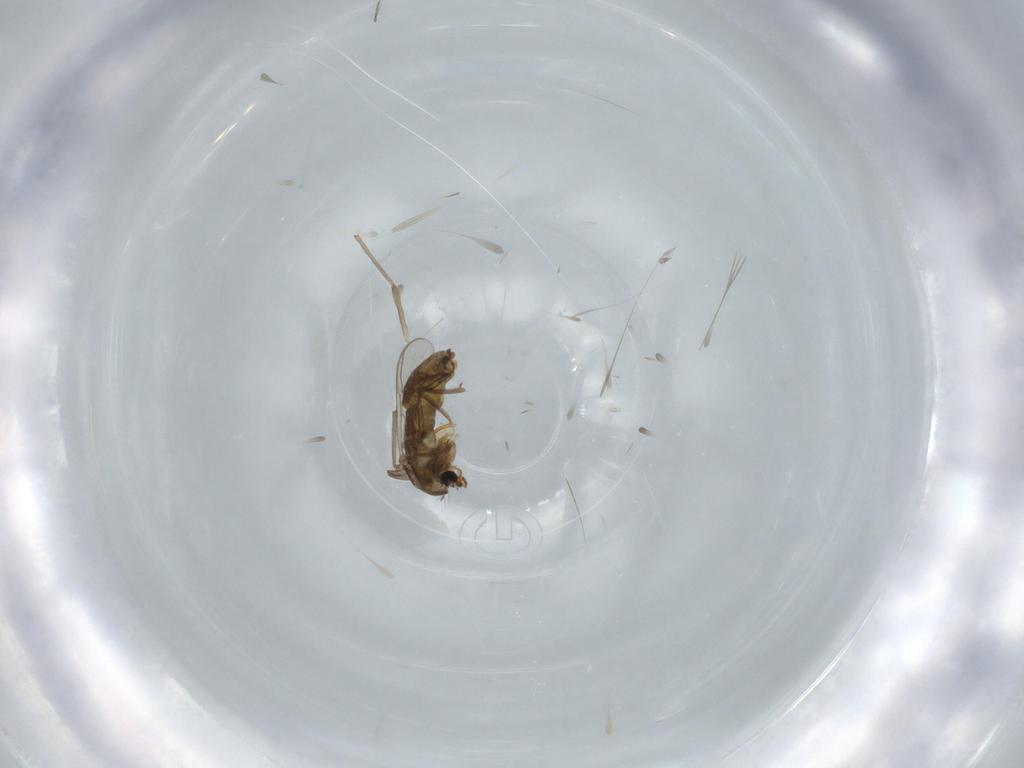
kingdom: Animalia
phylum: Arthropoda
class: Insecta
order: Diptera
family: Chironomidae
